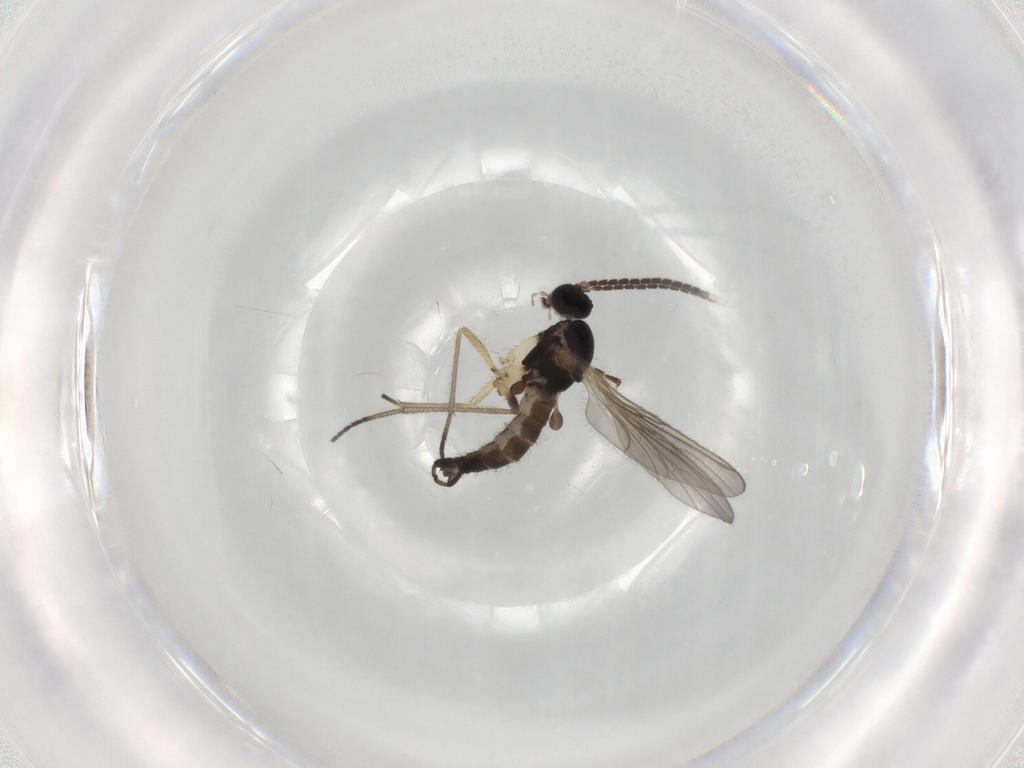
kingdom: Animalia
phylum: Arthropoda
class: Insecta
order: Diptera
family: Sciaridae
